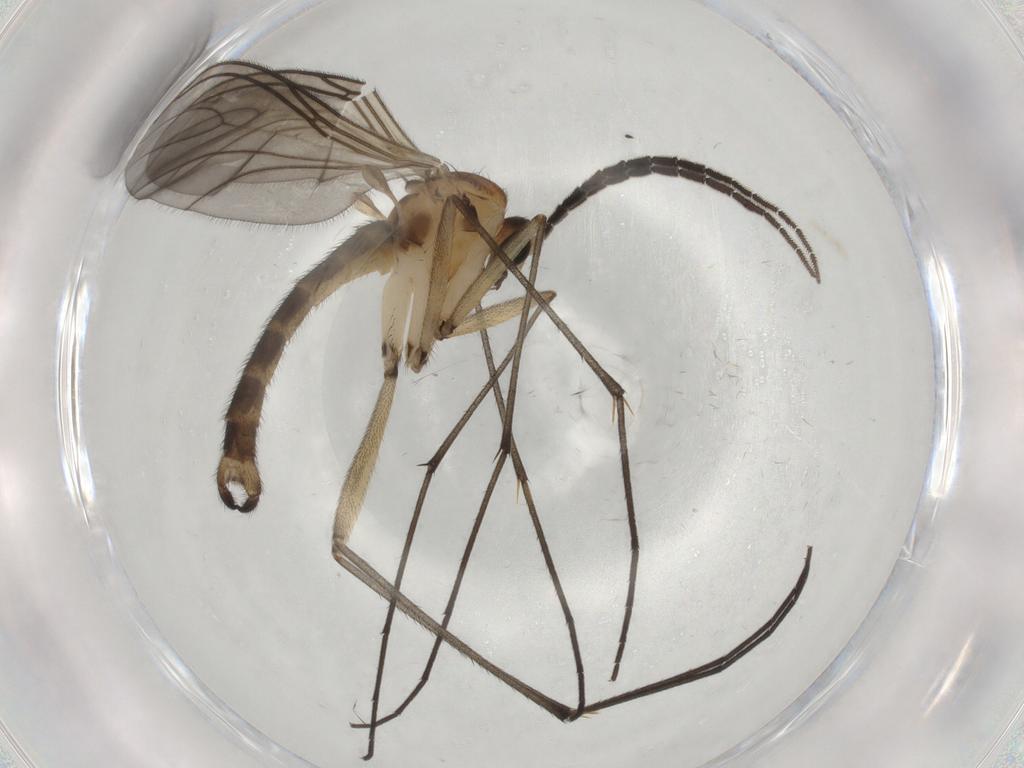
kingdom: Animalia
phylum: Arthropoda
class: Insecta
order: Diptera
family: Sciaridae
